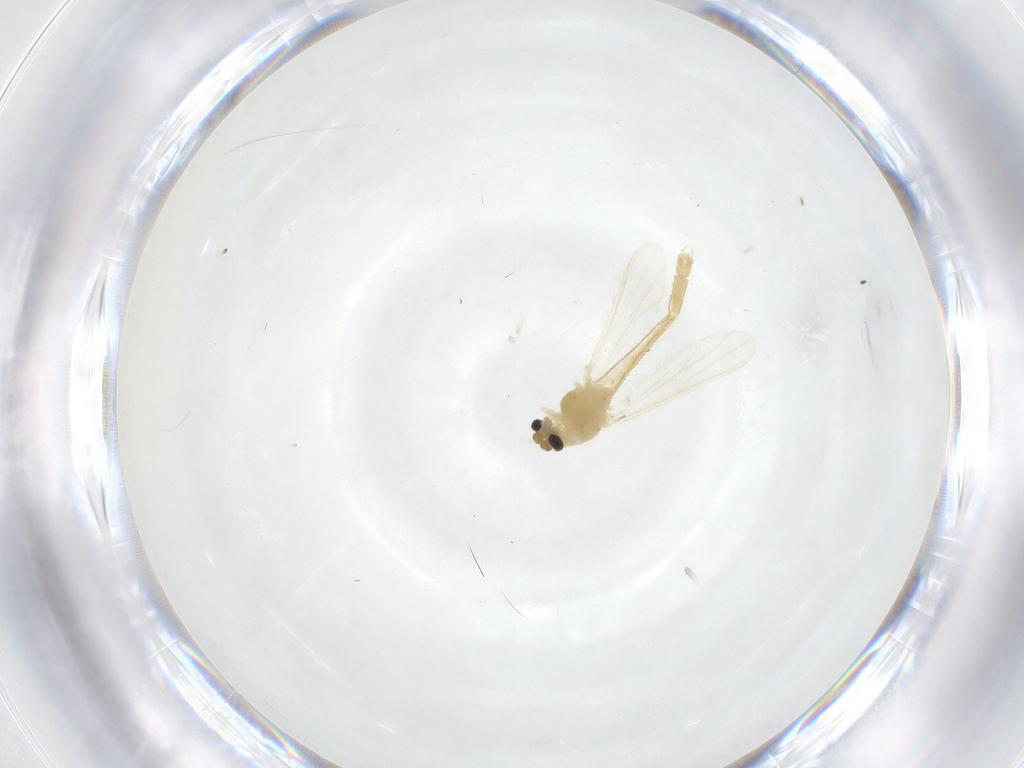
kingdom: Animalia
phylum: Arthropoda
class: Insecta
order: Diptera
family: Chironomidae
